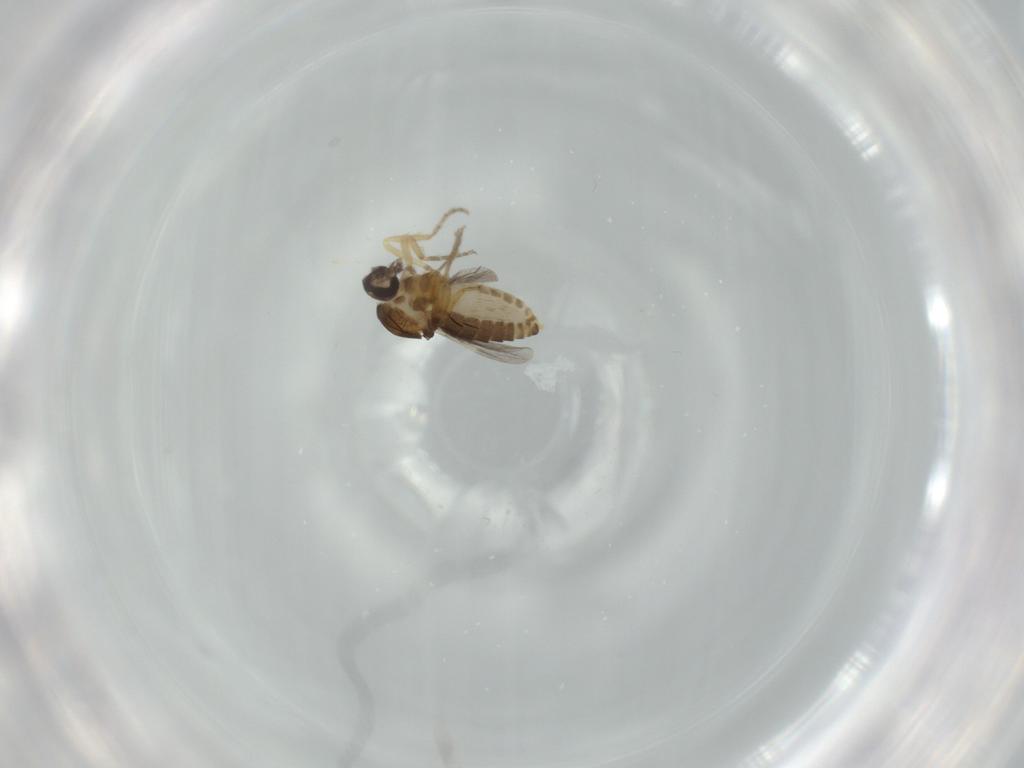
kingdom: Animalia
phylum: Arthropoda
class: Insecta
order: Diptera
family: Ceratopogonidae
